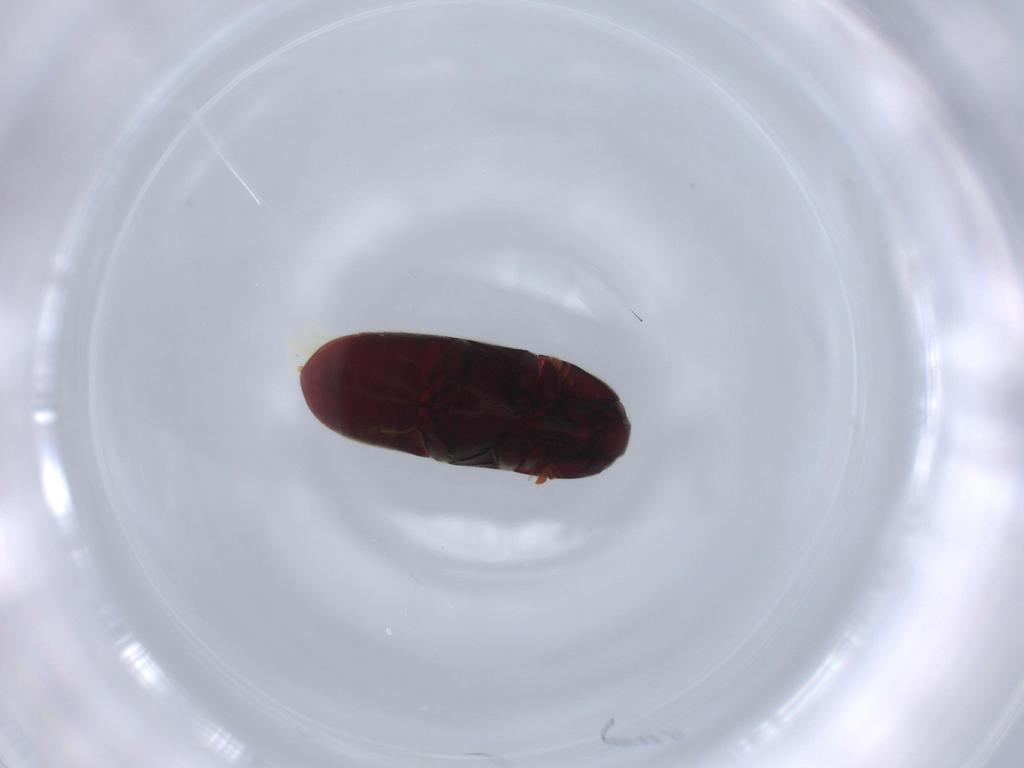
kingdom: Animalia
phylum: Arthropoda
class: Insecta
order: Coleoptera
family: Throscidae
